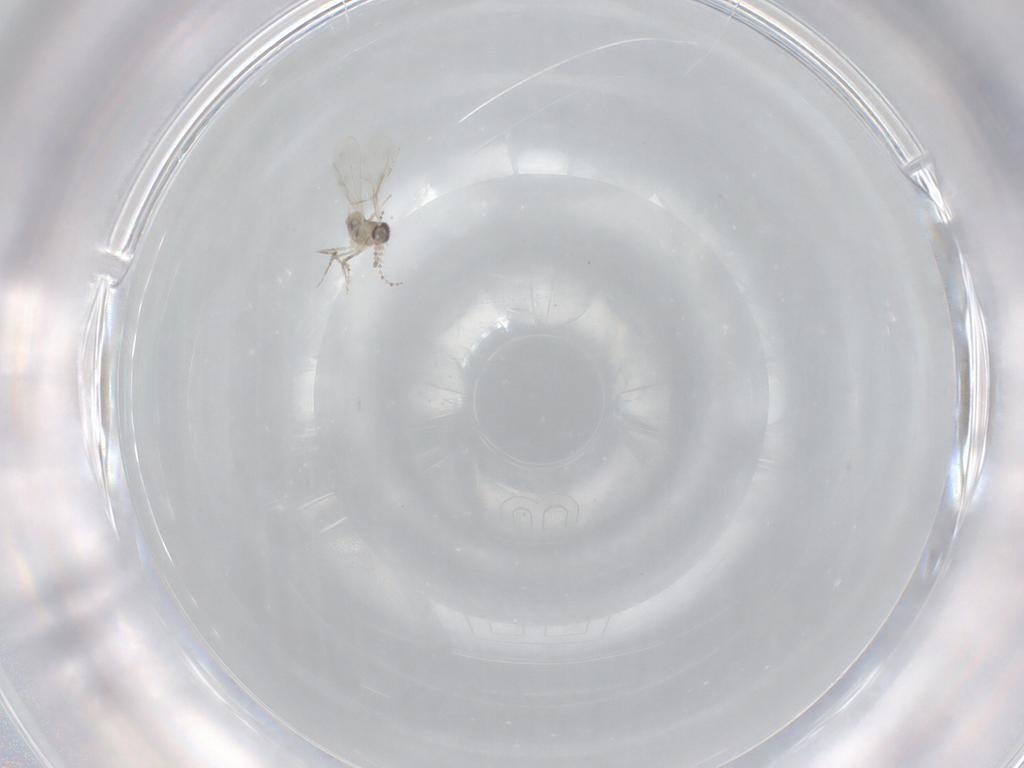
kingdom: Animalia
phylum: Arthropoda
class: Insecta
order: Diptera
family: Cecidomyiidae
